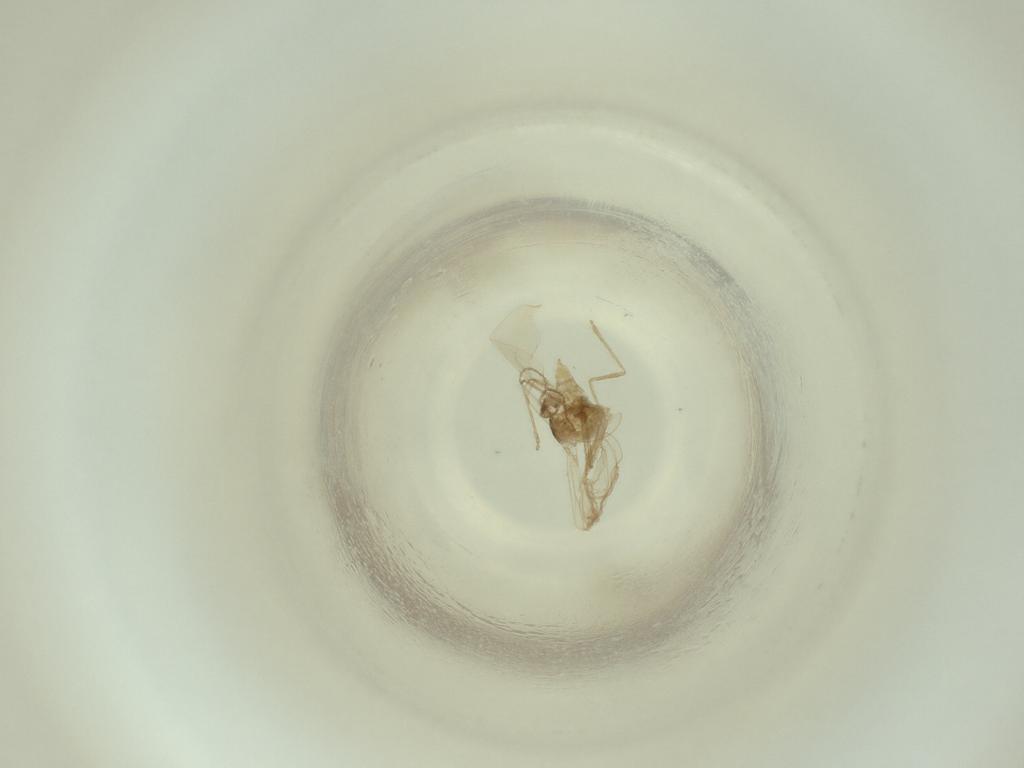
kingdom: Animalia
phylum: Arthropoda
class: Insecta
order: Diptera
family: Cecidomyiidae
